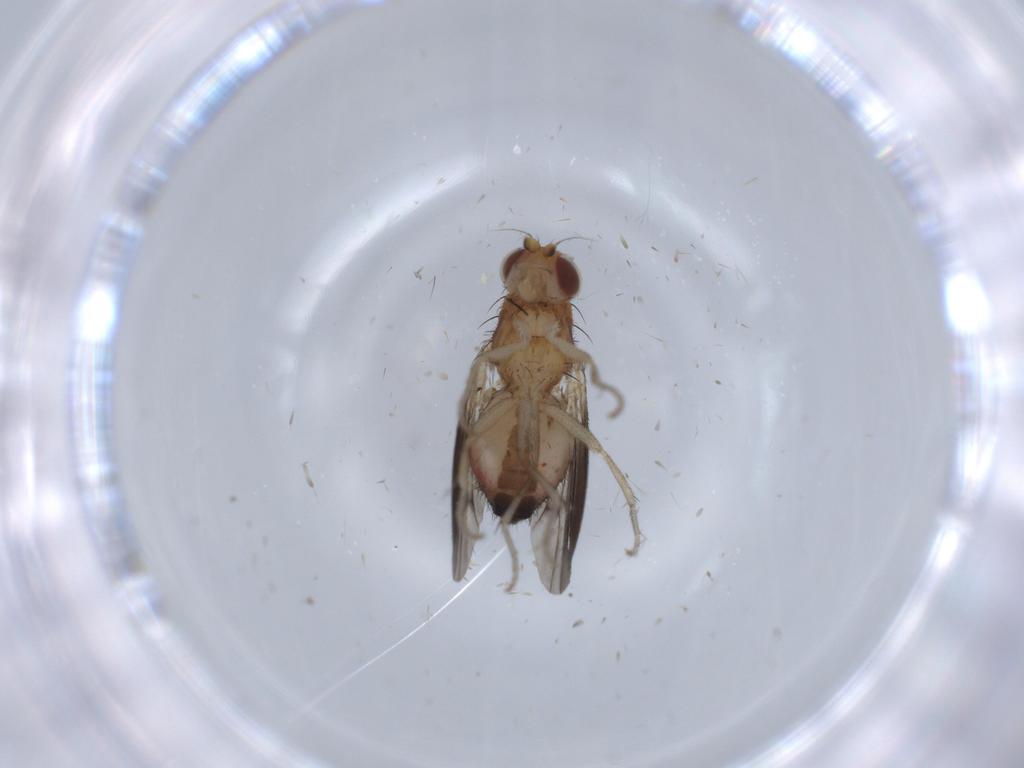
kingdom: Animalia
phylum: Arthropoda
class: Insecta
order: Diptera
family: Heleomyzidae
